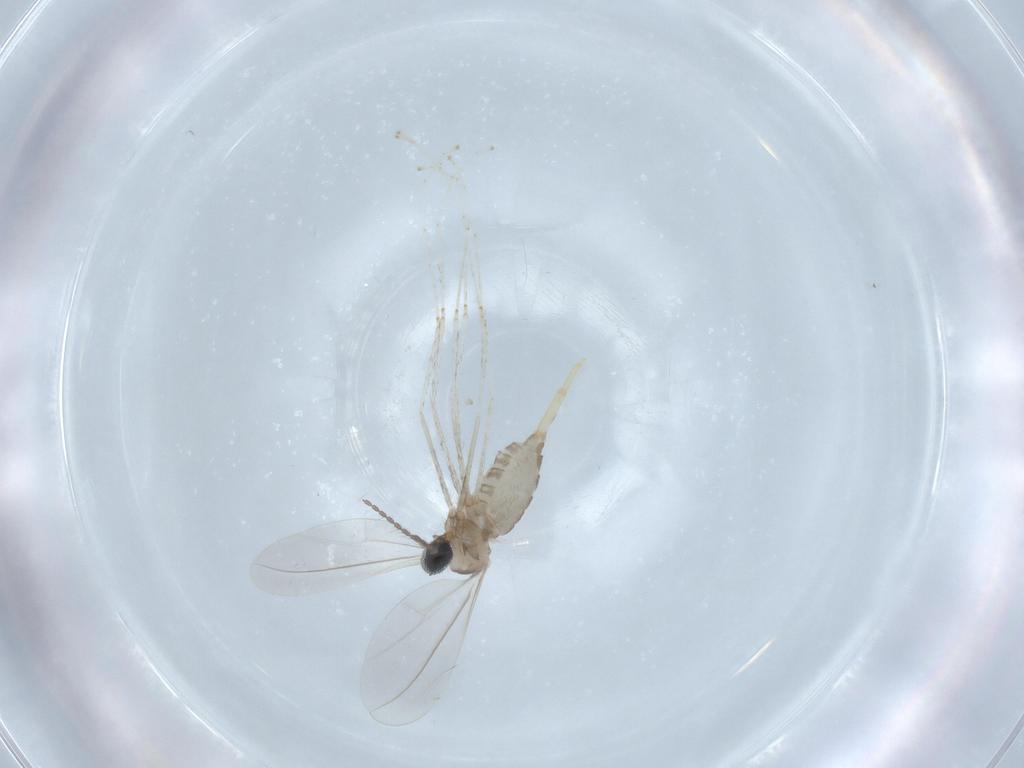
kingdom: Animalia
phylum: Arthropoda
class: Insecta
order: Diptera
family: Cecidomyiidae
